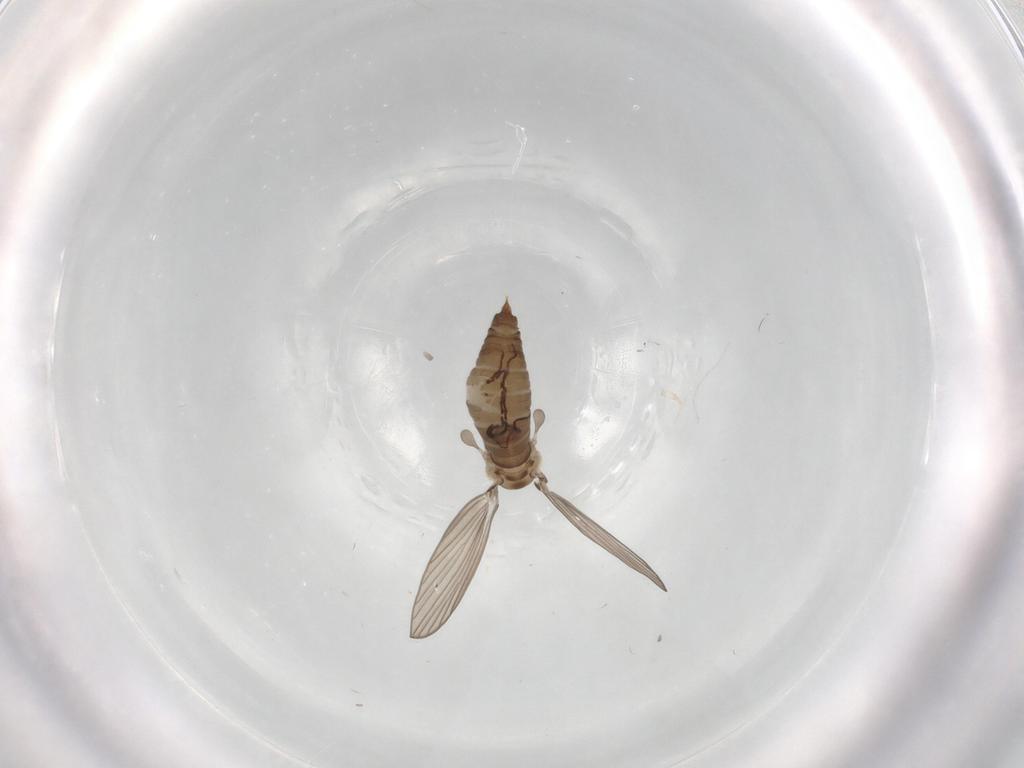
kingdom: Animalia
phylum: Arthropoda
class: Insecta
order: Diptera
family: Psychodidae
